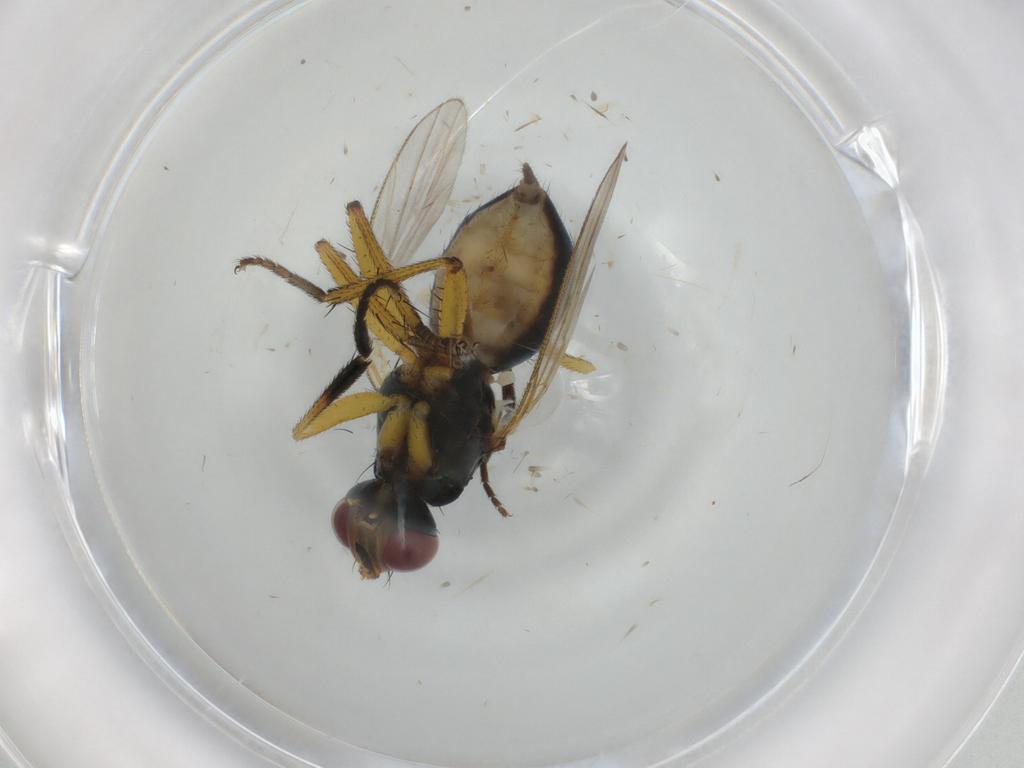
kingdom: Animalia
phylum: Arthropoda
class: Insecta
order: Diptera
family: Muscidae
